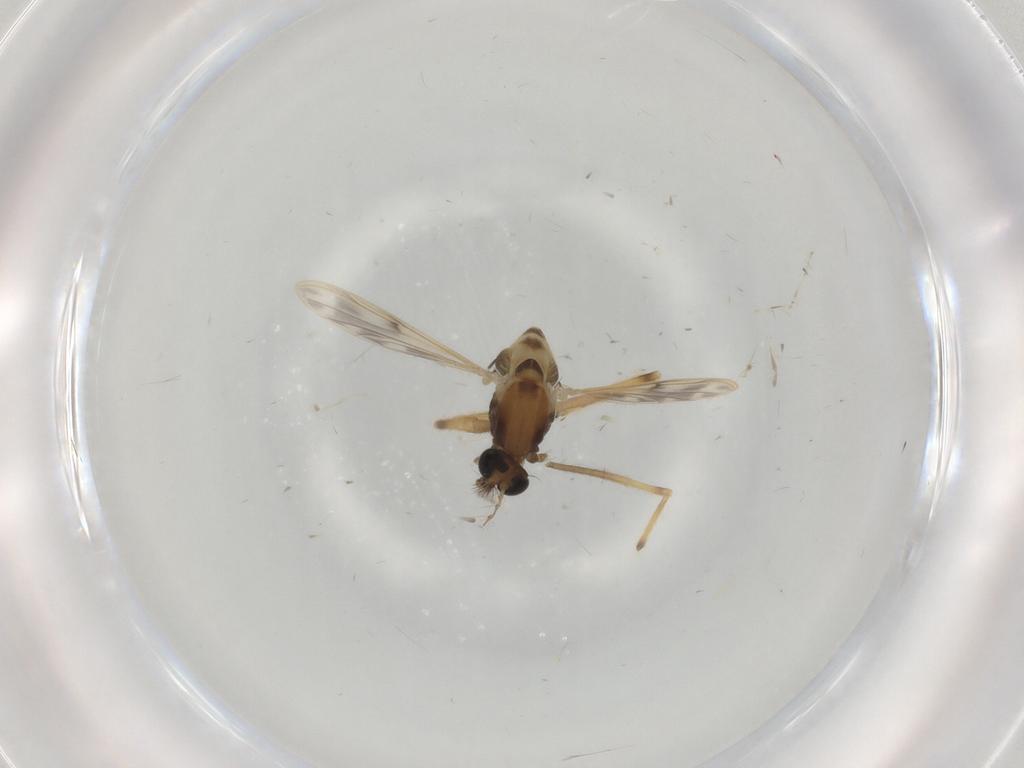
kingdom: Animalia
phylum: Arthropoda
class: Insecta
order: Diptera
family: Chironomidae
